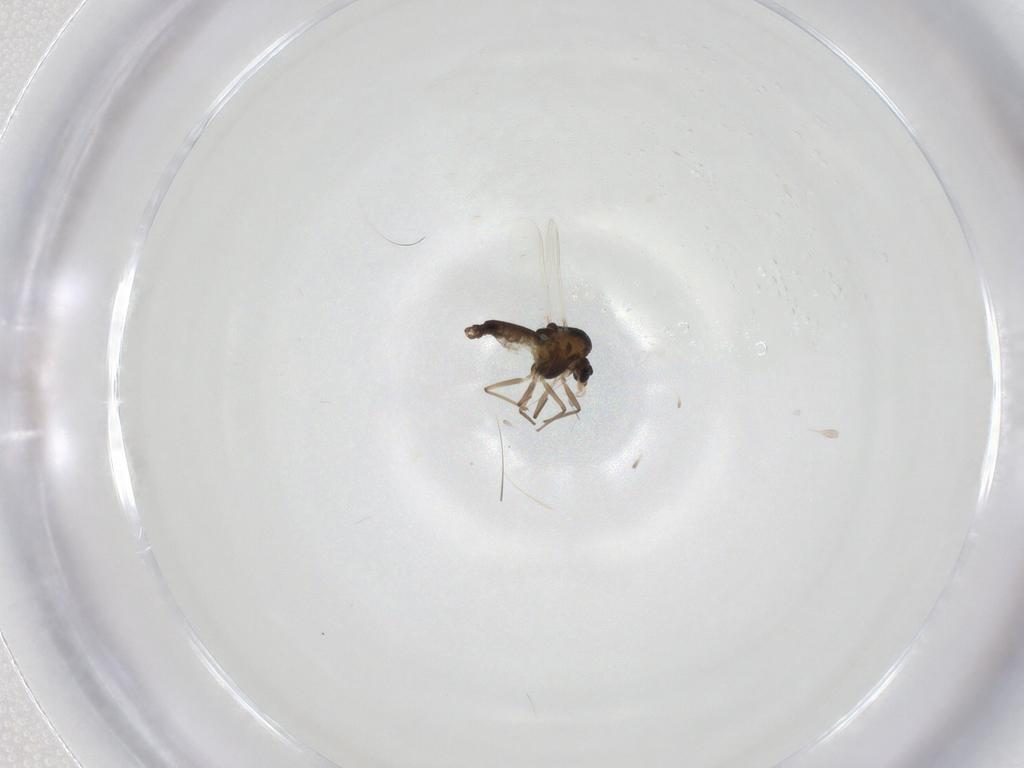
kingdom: Animalia
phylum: Arthropoda
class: Insecta
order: Diptera
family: Chironomidae
